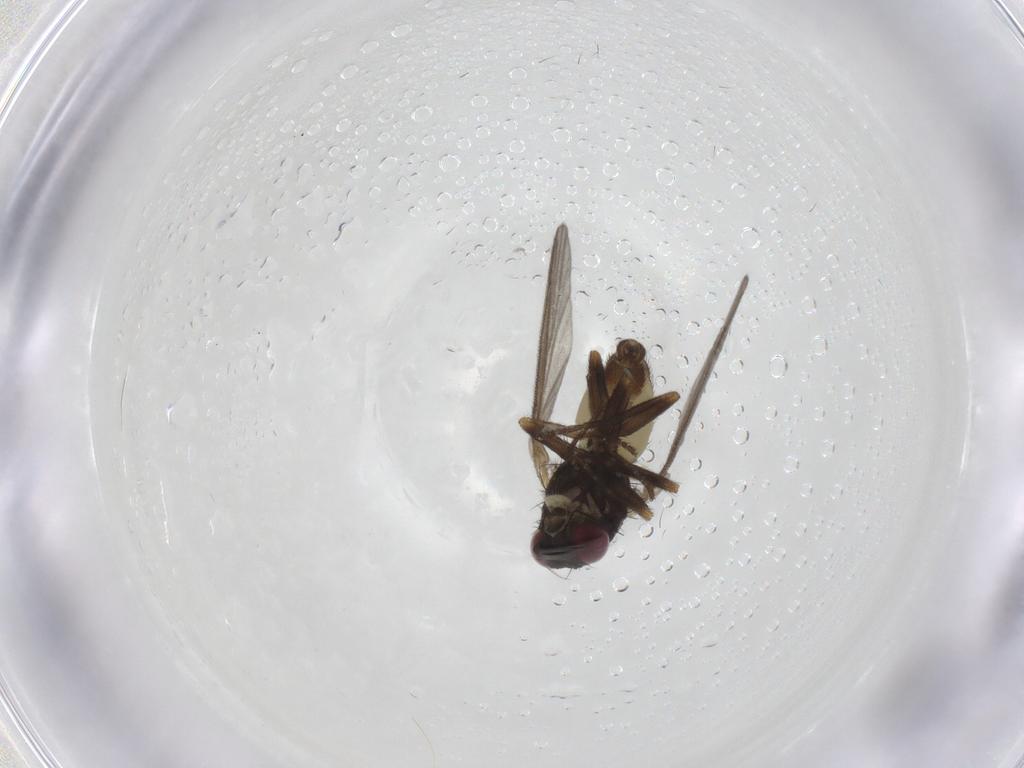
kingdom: Animalia
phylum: Arthropoda
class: Insecta
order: Diptera
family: Agromyzidae
